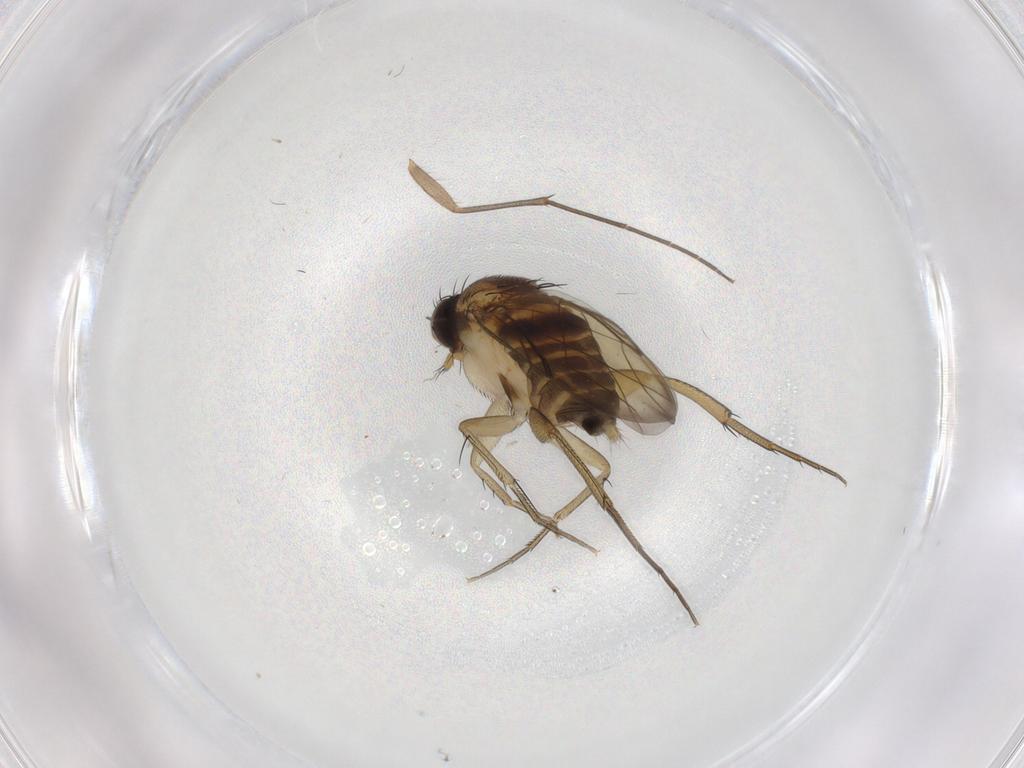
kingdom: Animalia
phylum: Arthropoda
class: Insecta
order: Diptera
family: Phoridae
